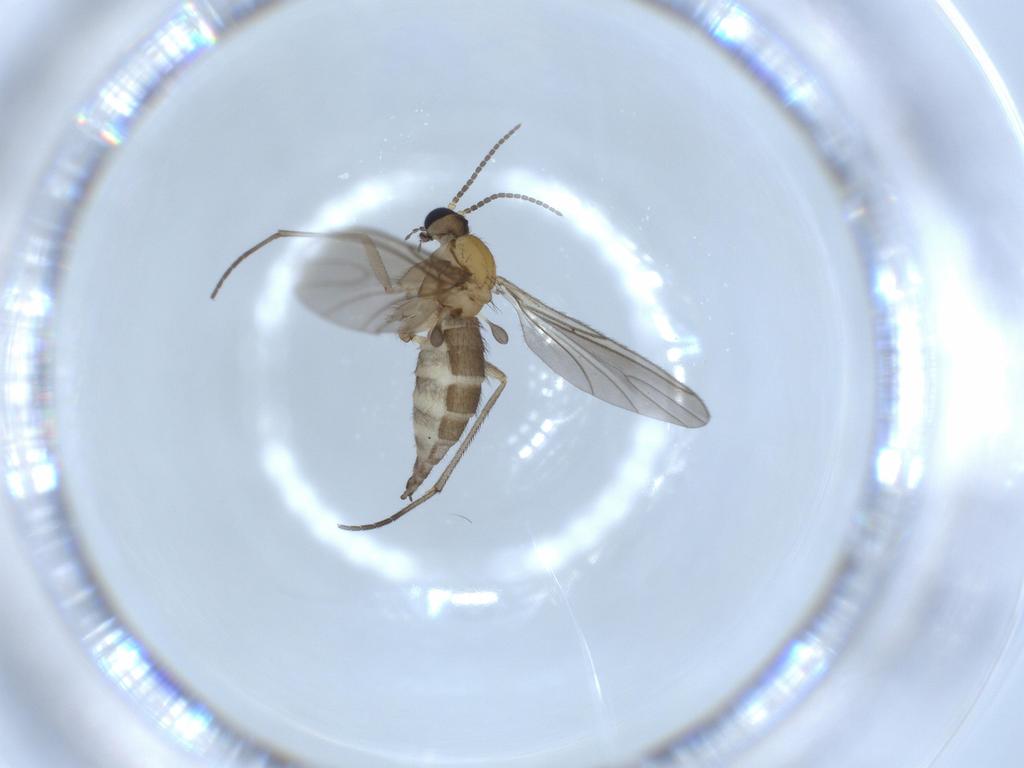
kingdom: Animalia
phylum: Arthropoda
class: Insecta
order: Diptera
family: Sciaridae
